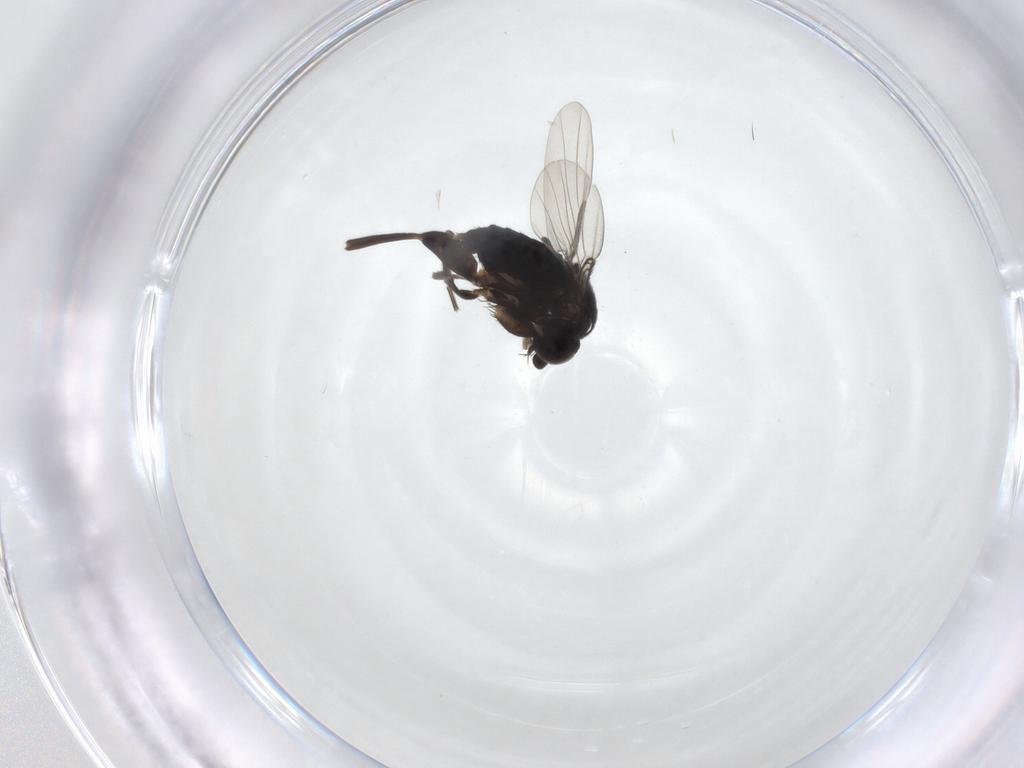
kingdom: Animalia
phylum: Arthropoda
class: Insecta
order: Diptera
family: Phoridae
